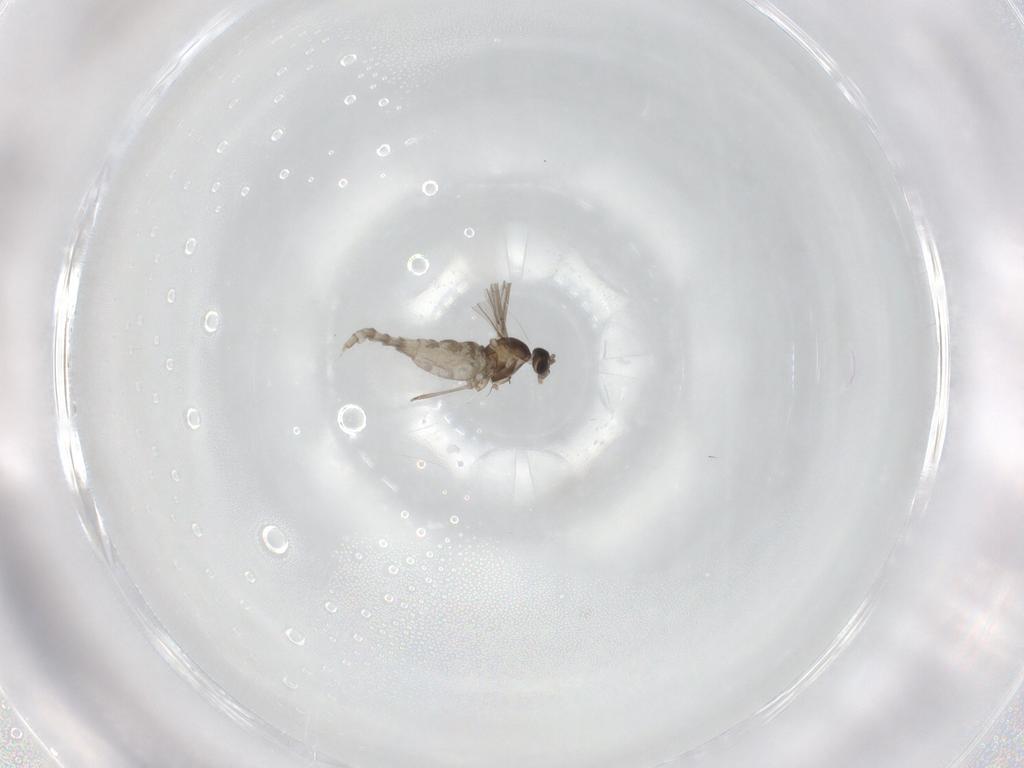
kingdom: Animalia
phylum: Arthropoda
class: Insecta
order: Diptera
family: Cecidomyiidae
